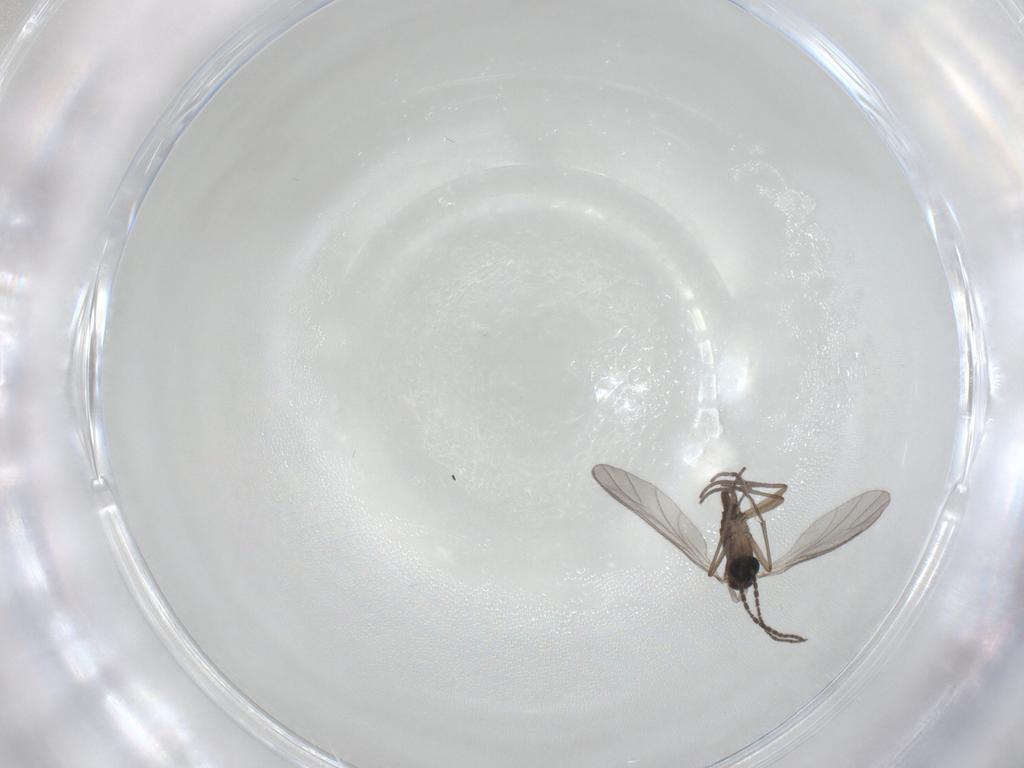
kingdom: Animalia
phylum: Arthropoda
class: Insecta
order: Diptera
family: Sciaridae
